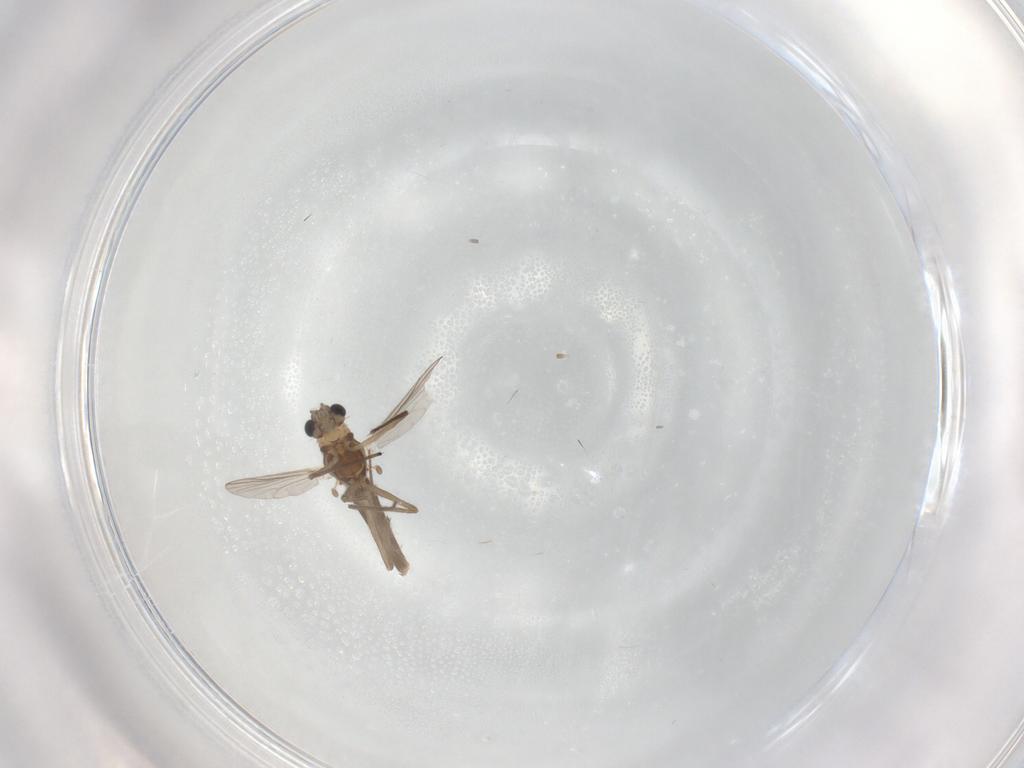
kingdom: Animalia
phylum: Arthropoda
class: Insecta
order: Diptera
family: Chironomidae
